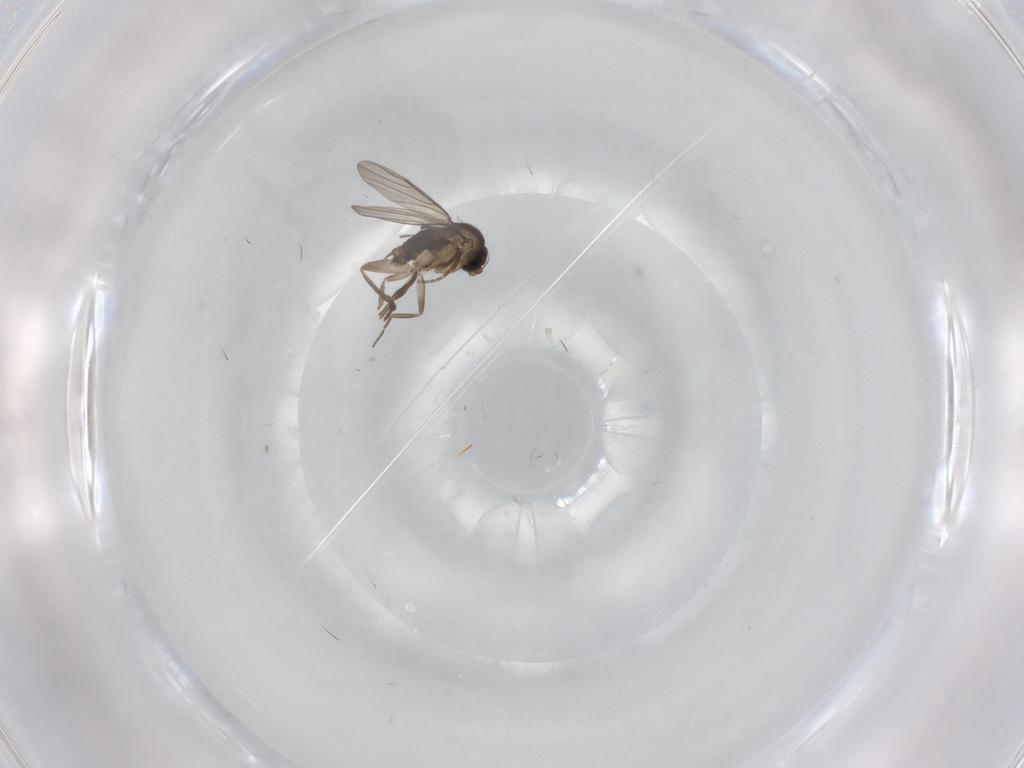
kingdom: Animalia
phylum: Arthropoda
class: Insecta
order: Diptera
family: Phoridae
